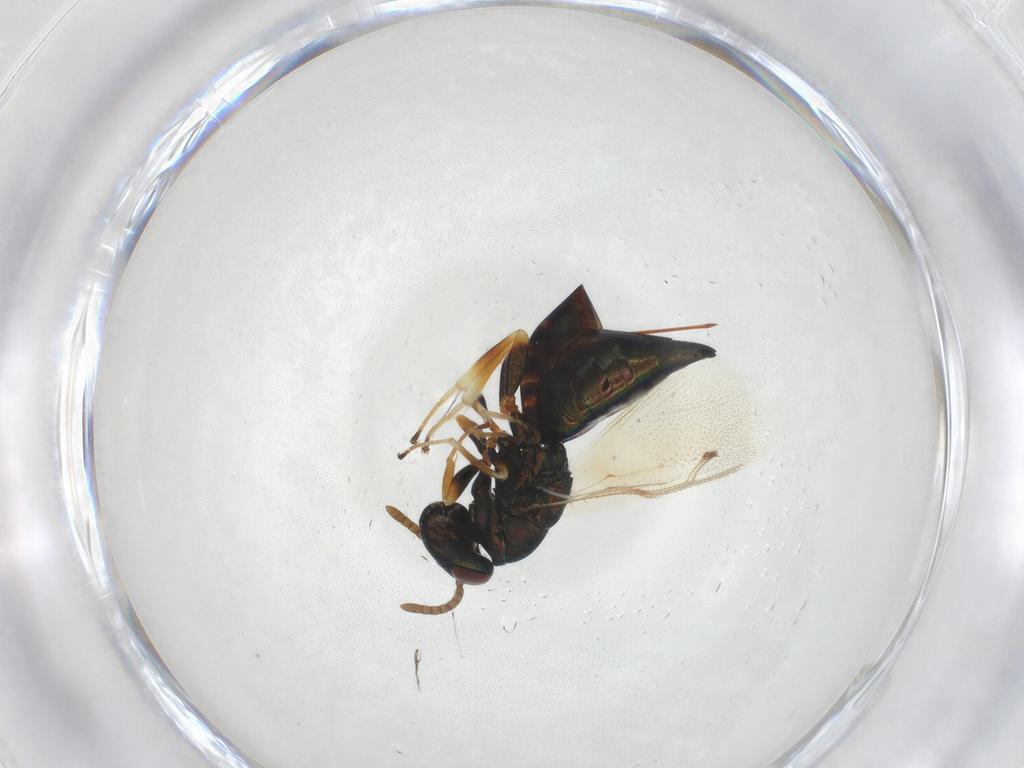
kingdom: Animalia
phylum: Arthropoda
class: Insecta
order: Hymenoptera
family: Pteromalidae
